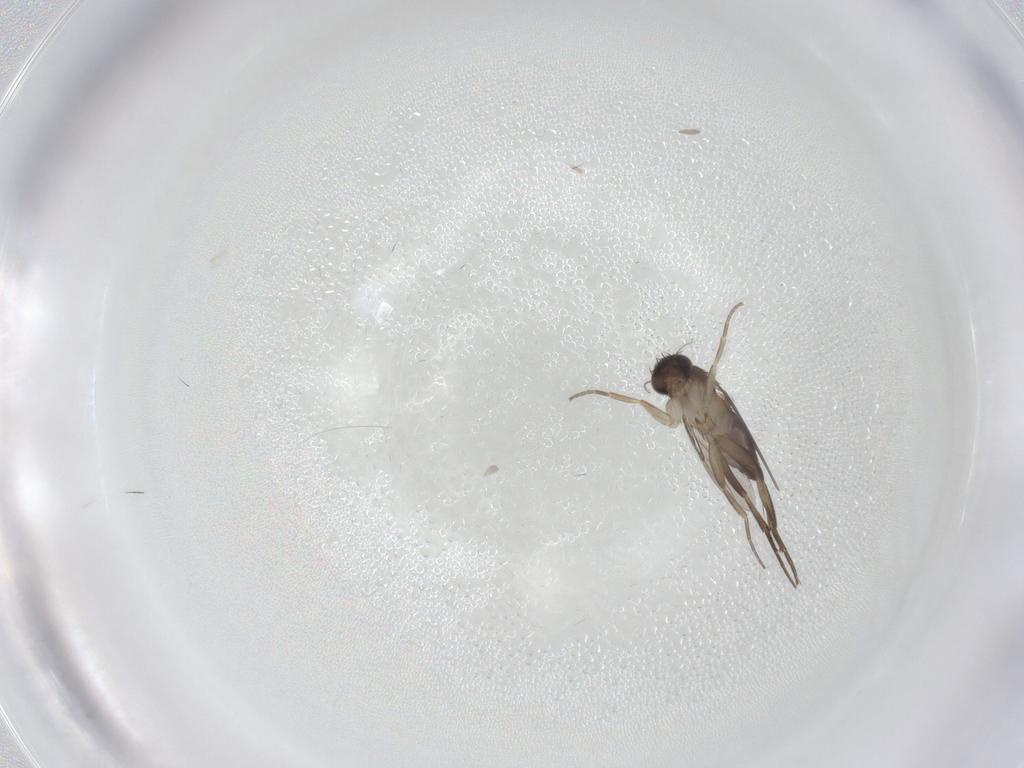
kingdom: Animalia
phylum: Arthropoda
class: Insecta
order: Diptera
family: Phoridae
